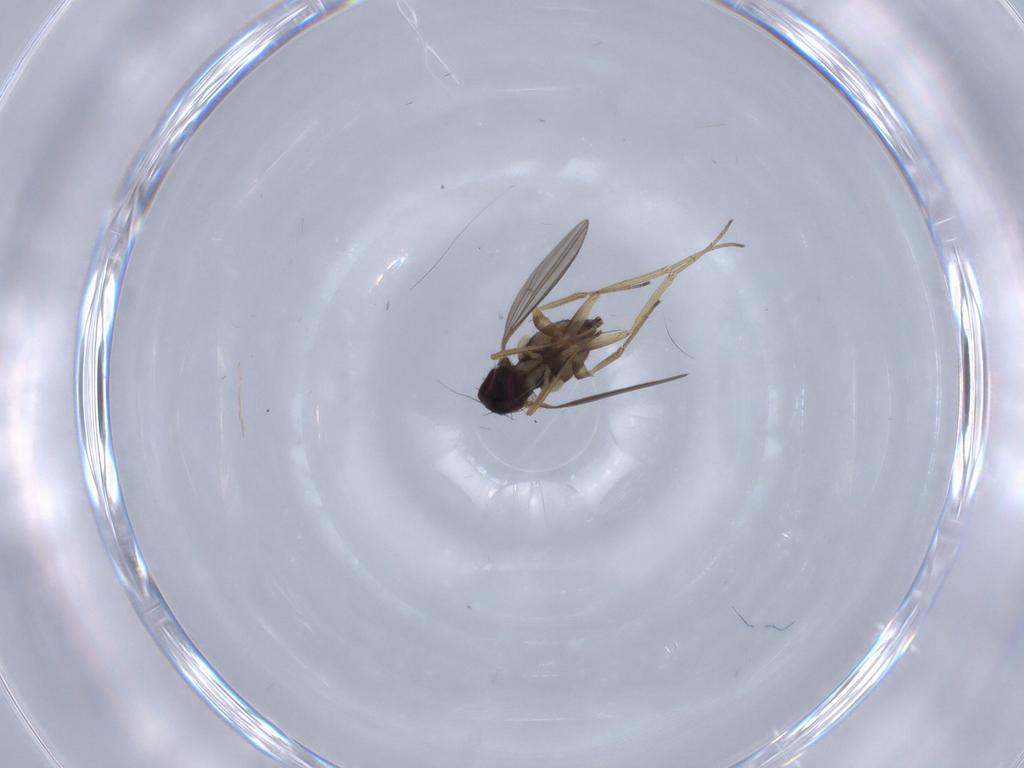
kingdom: Animalia
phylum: Arthropoda
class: Insecta
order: Diptera
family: Dolichopodidae
